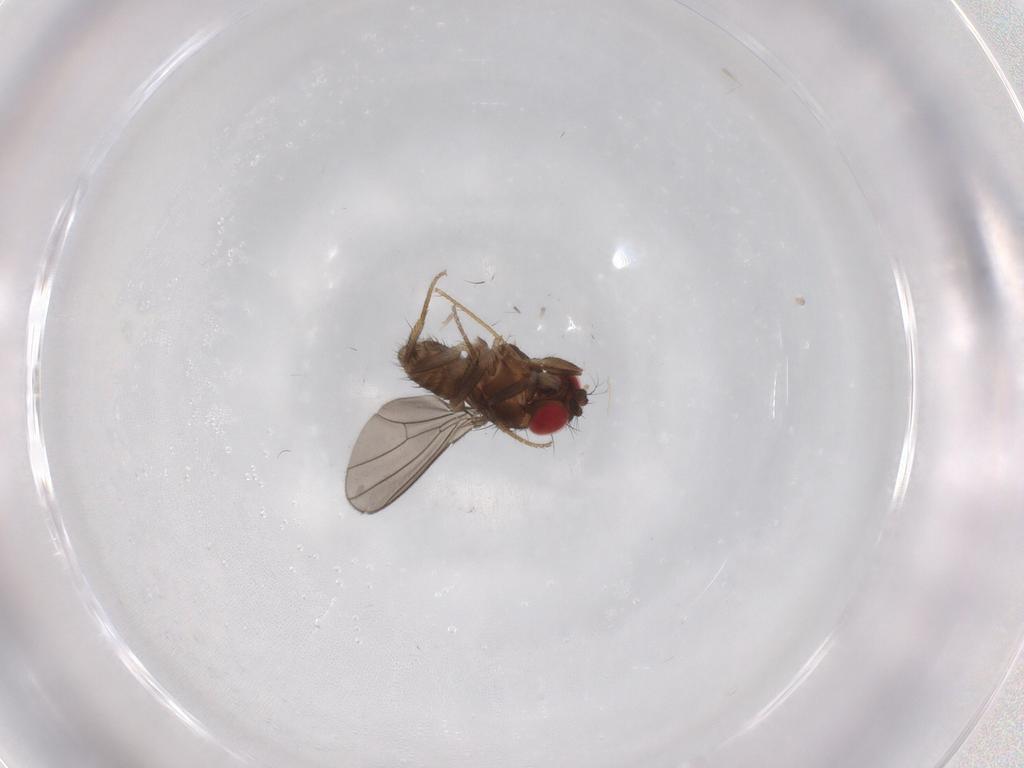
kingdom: Animalia
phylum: Arthropoda
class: Insecta
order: Diptera
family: Drosophilidae
